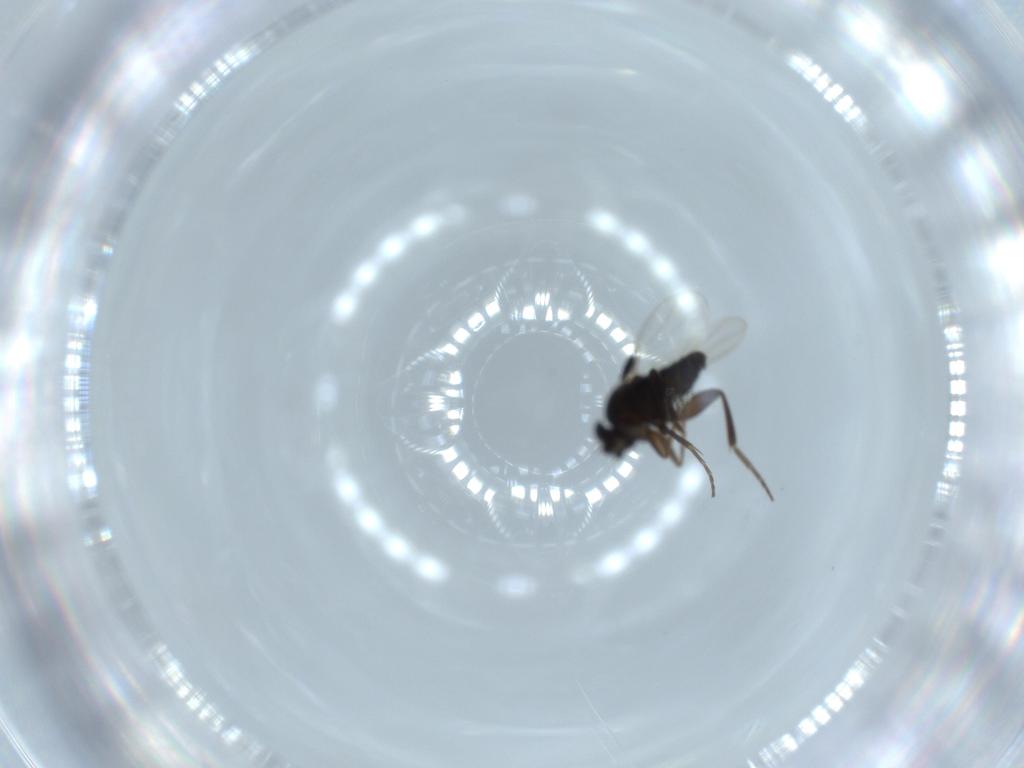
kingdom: Animalia
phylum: Arthropoda
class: Insecta
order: Diptera
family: Phoridae
